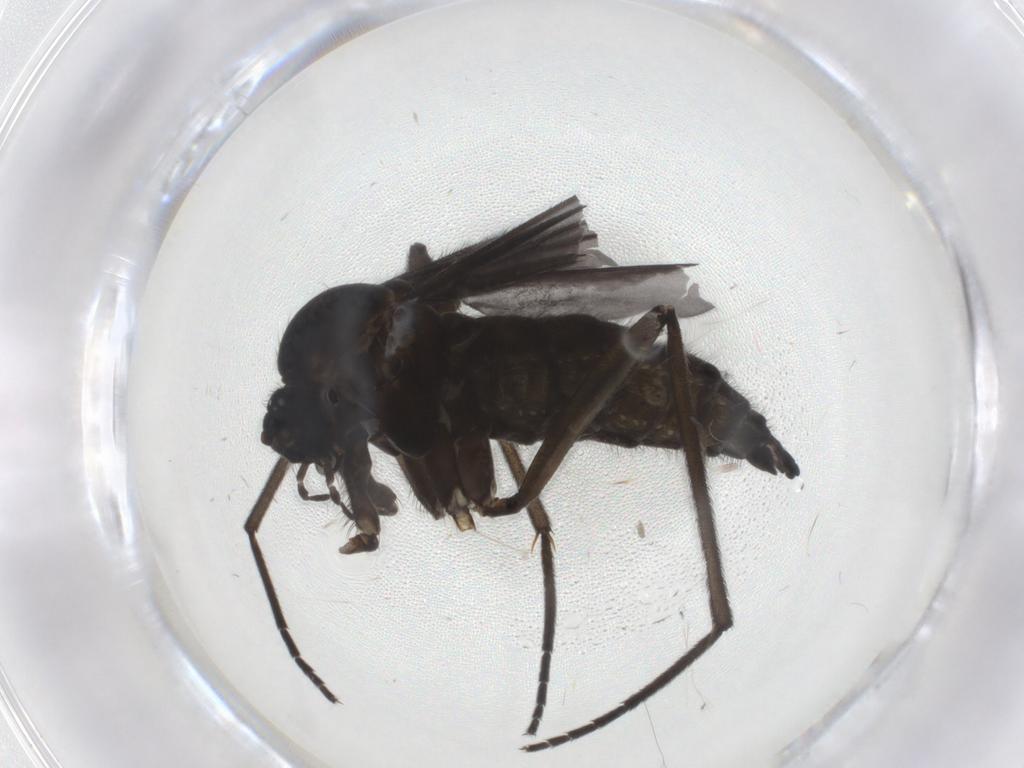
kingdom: Animalia
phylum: Arthropoda
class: Insecta
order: Diptera
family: Sciaridae
